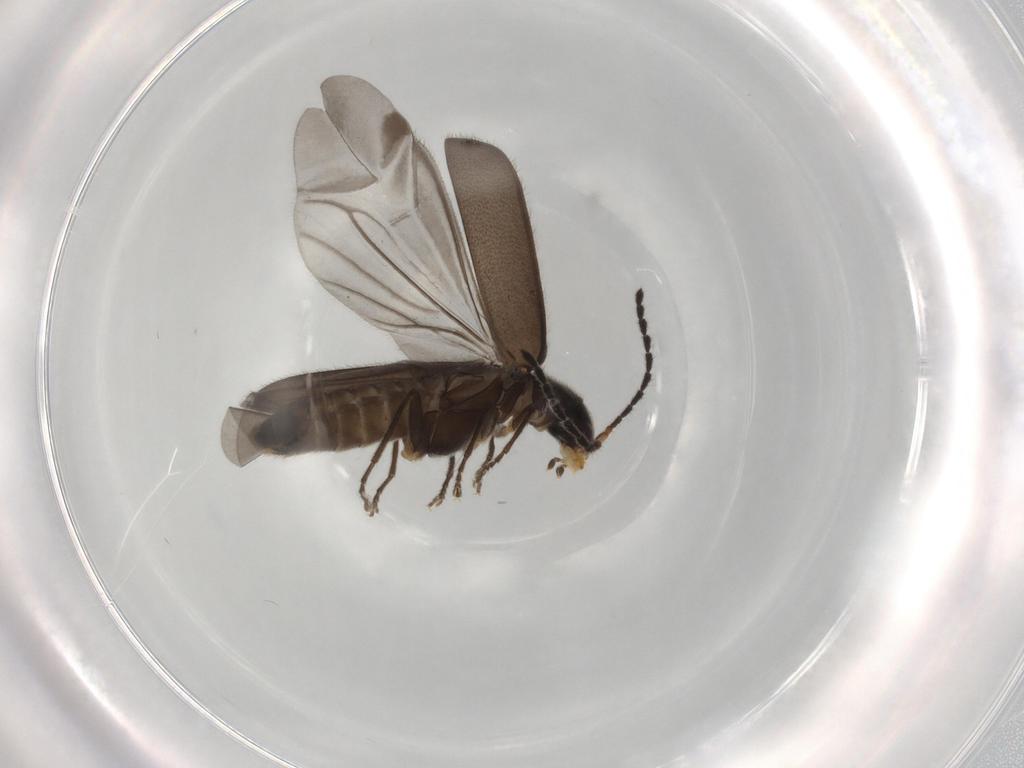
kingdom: Animalia
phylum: Arthropoda
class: Insecta
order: Coleoptera
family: Cantharidae
